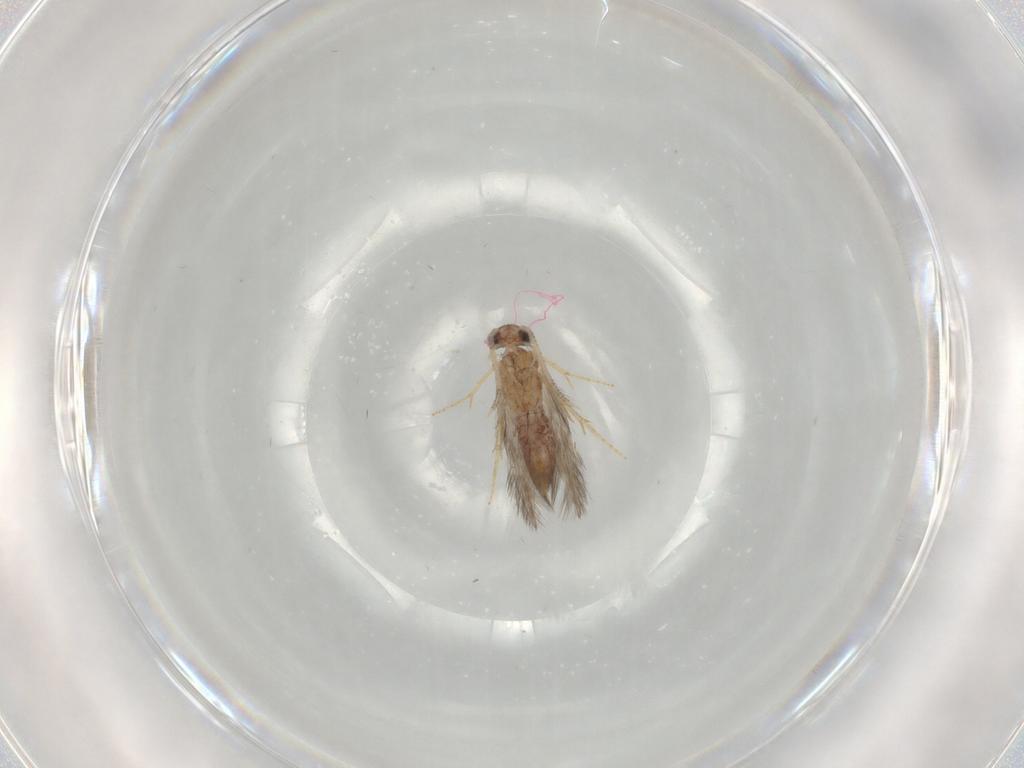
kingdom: Animalia
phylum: Arthropoda
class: Insecta
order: Trichoptera
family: Hydroptilidae
